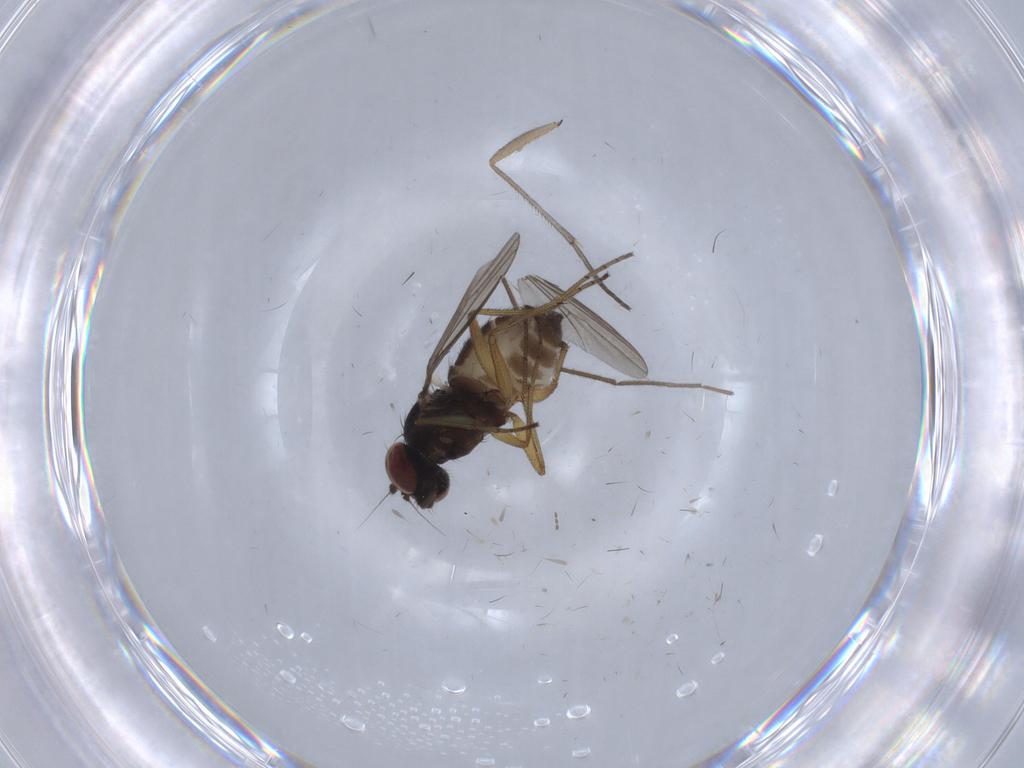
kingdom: Animalia
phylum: Arthropoda
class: Insecta
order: Diptera
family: Dolichopodidae
